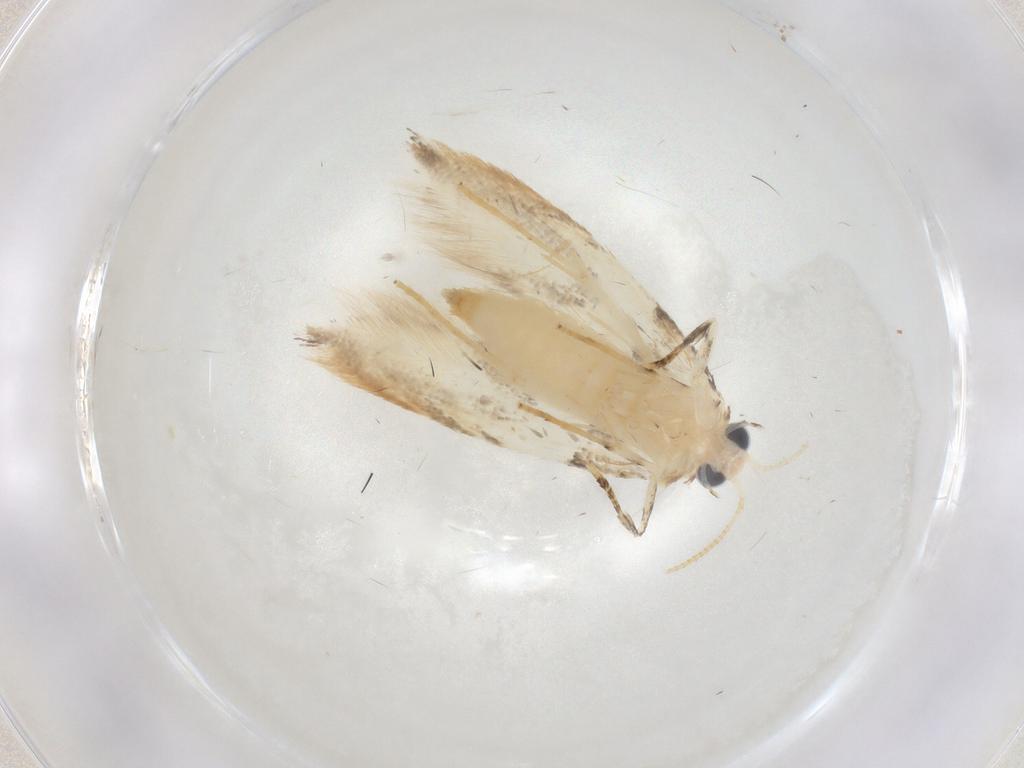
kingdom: Animalia
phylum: Arthropoda
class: Insecta
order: Lepidoptera
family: Tineidae
